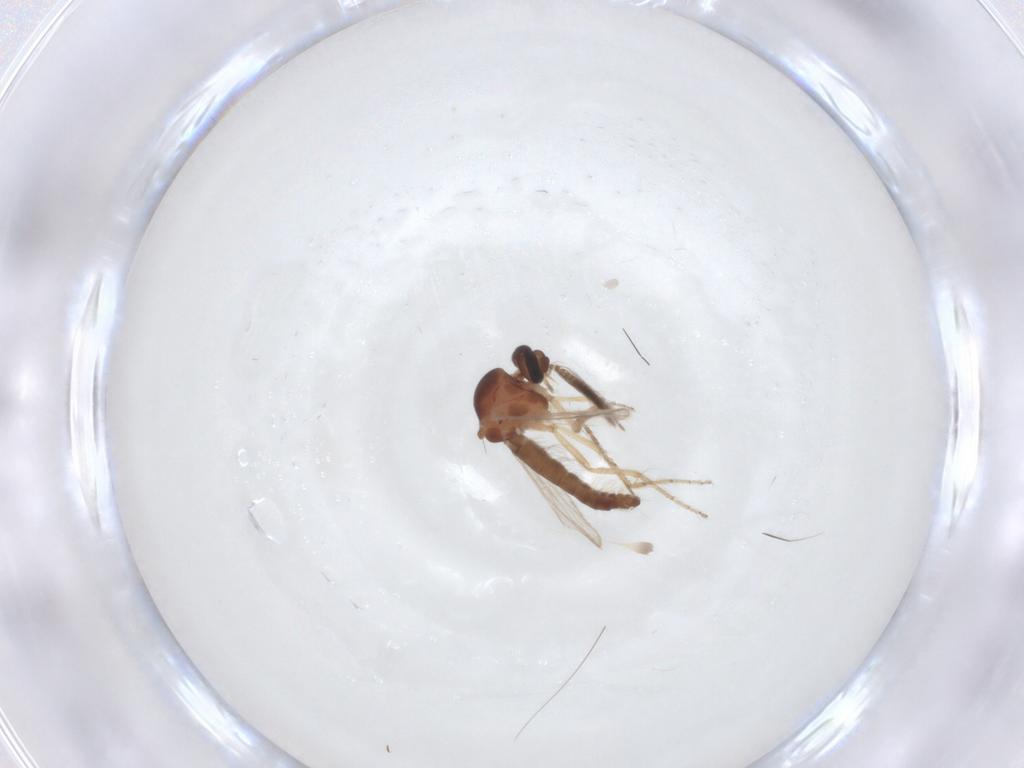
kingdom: Animalia
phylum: Arthropoda
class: Insecta
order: Diptera
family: Ceratopogonidae
